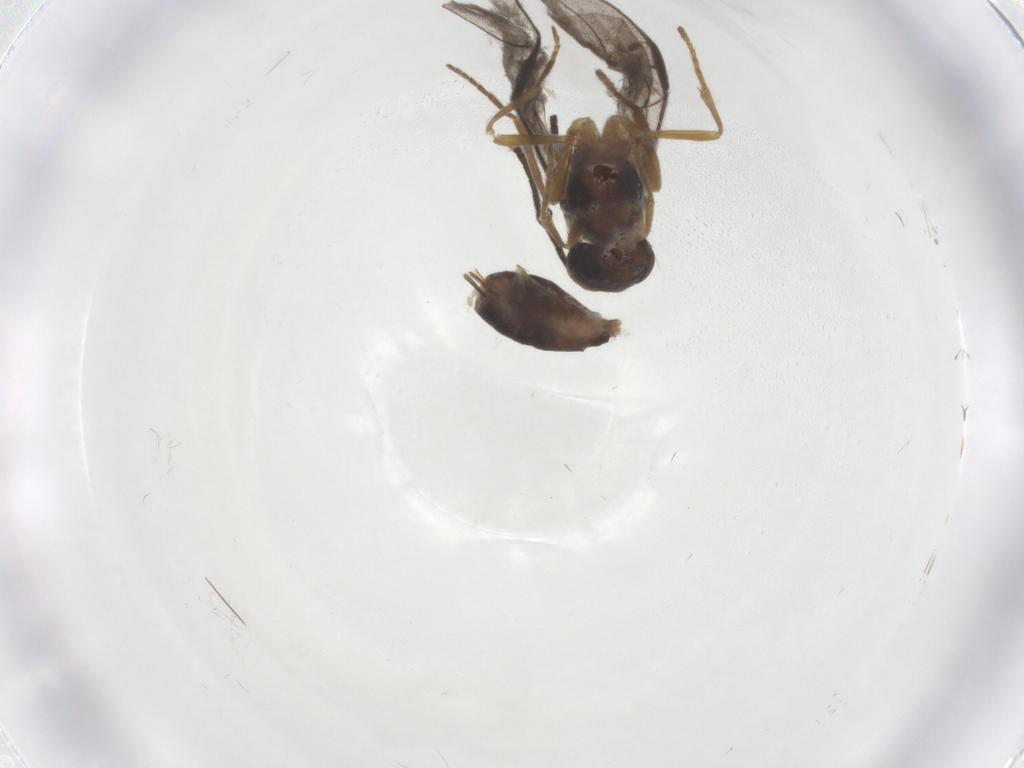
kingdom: Animalia
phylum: Arthropoda
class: Insecta
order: Diptera
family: Limoniidae
